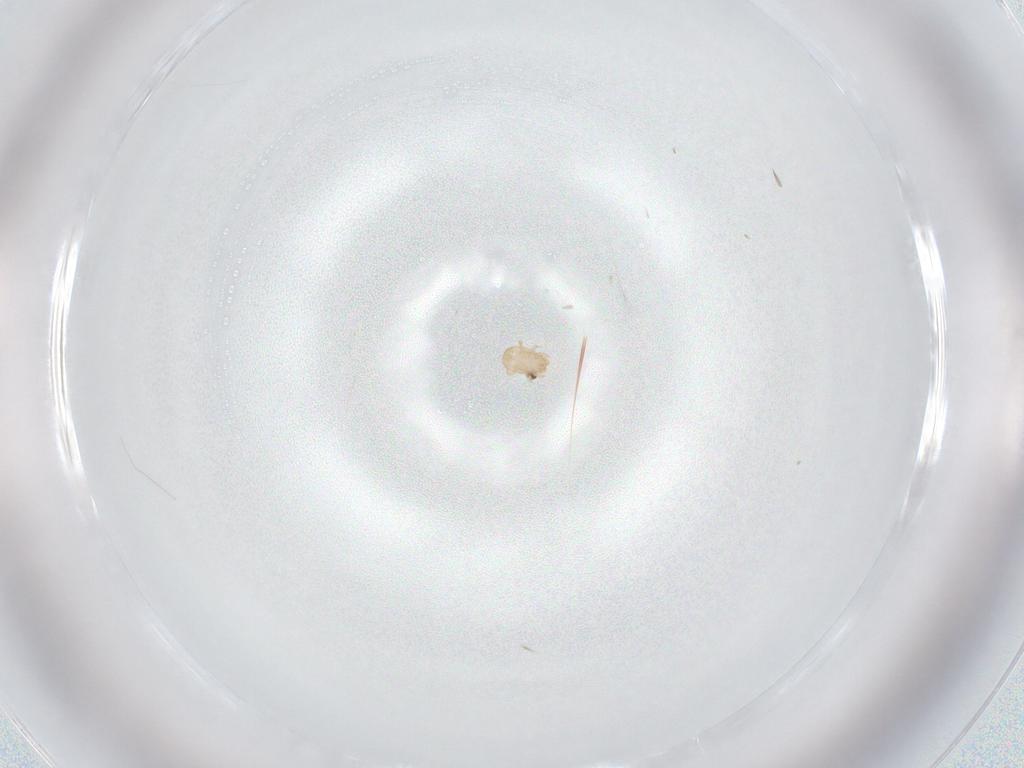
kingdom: Animalia
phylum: Arthropoda
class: Arachnida
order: Mesostigmata
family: Ascidae
